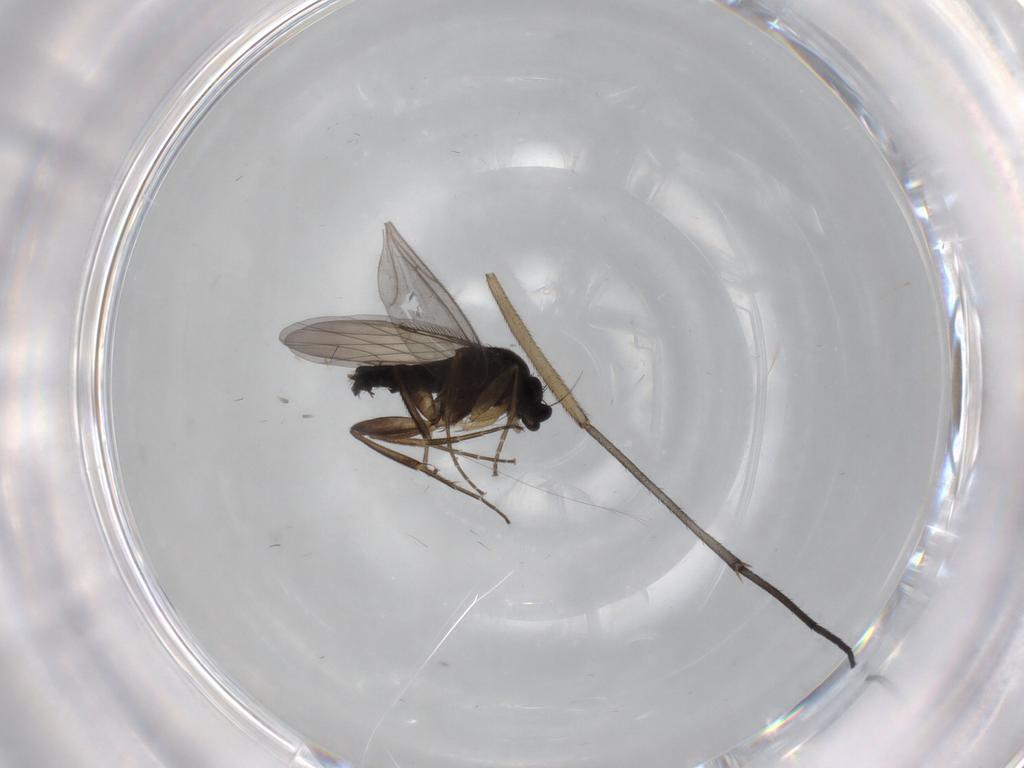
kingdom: Animalia
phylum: Arthropoda
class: Insecta
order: Diptera
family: Phoridae
